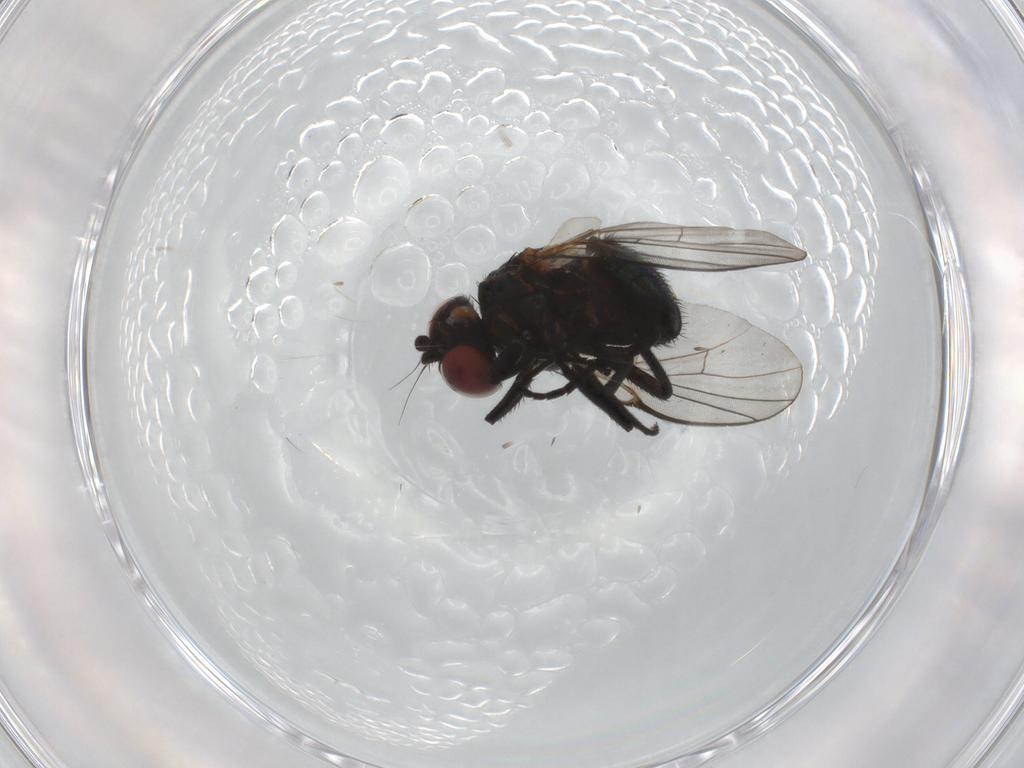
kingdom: Animalia
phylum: Arthropoda
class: Insecta
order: Diptera
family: Agromyzidae
